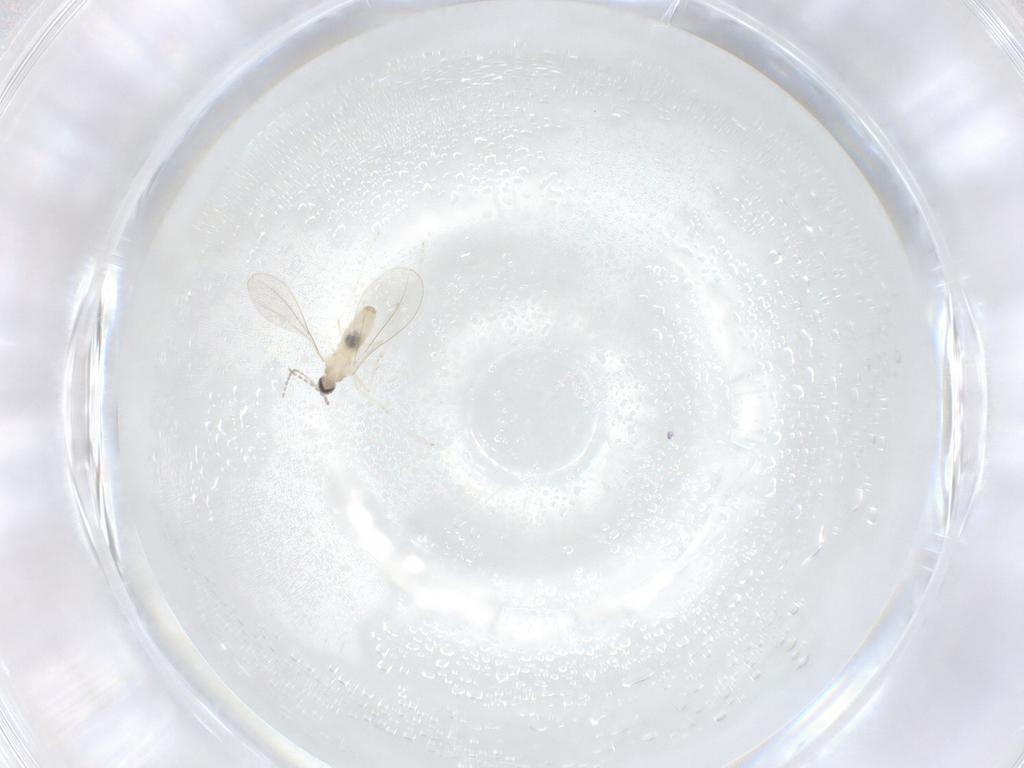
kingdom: Animalia
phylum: Arthropoda
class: Insecta
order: Diptera
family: Cecidomyiidae
